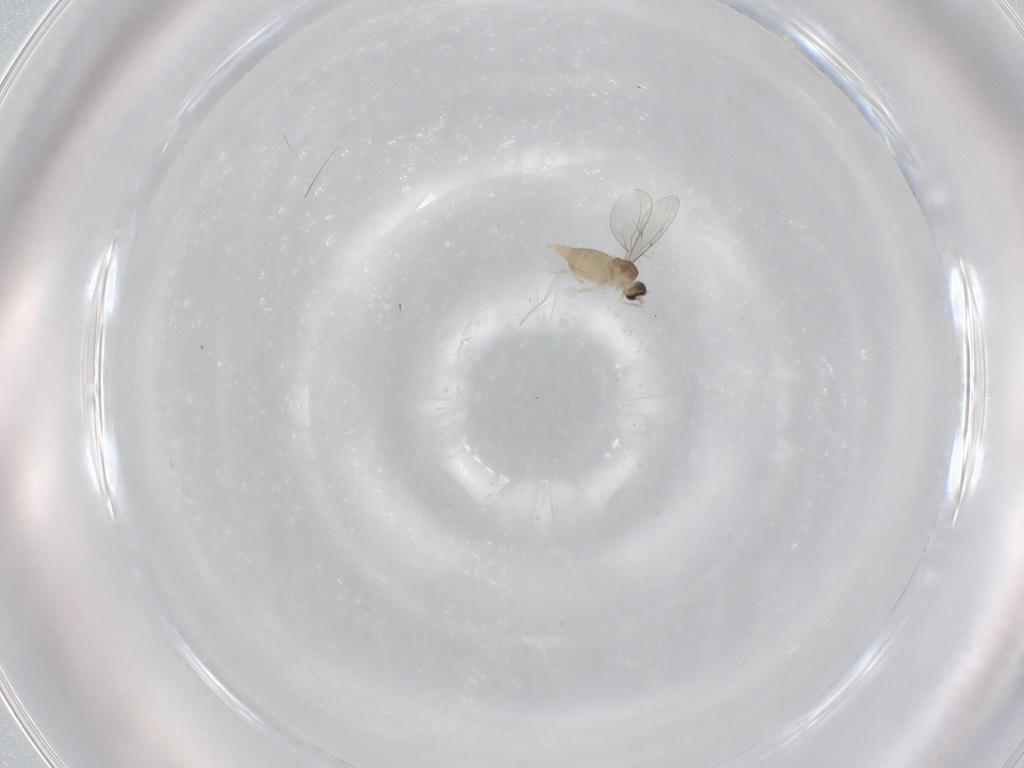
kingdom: Animalia
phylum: Arthropoda
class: Insecta
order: Diptera
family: Cecidomyiidae
